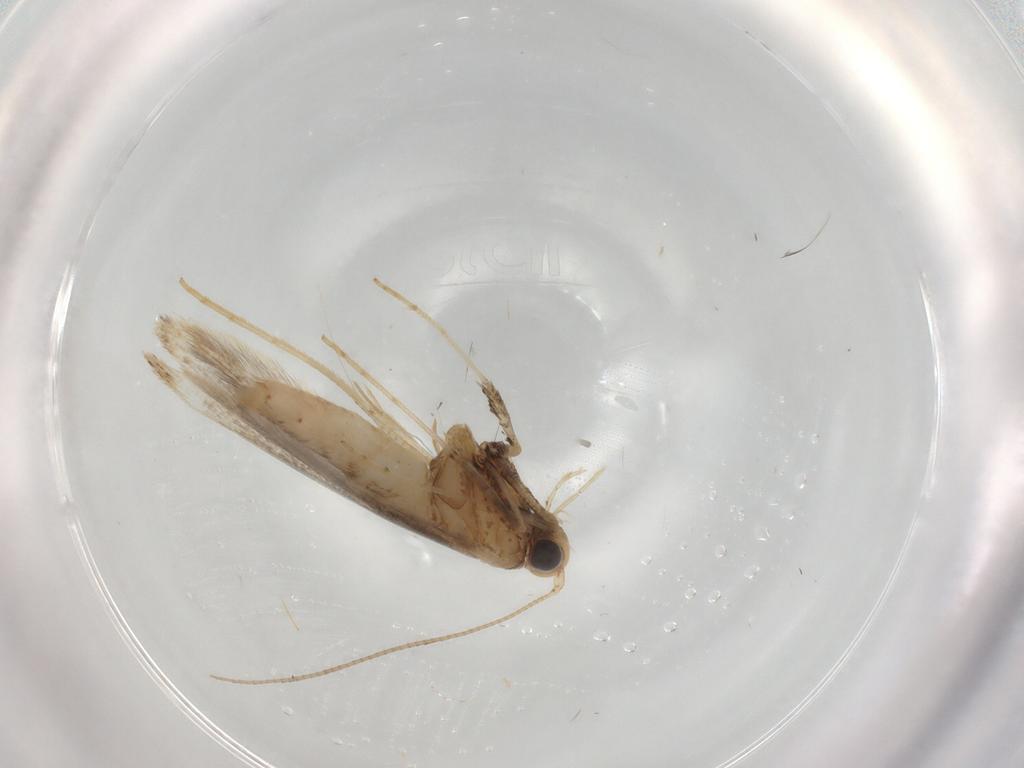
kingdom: Animalia
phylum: Arthropoda
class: Insecta
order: Lepidoptera
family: Gracillariidae
